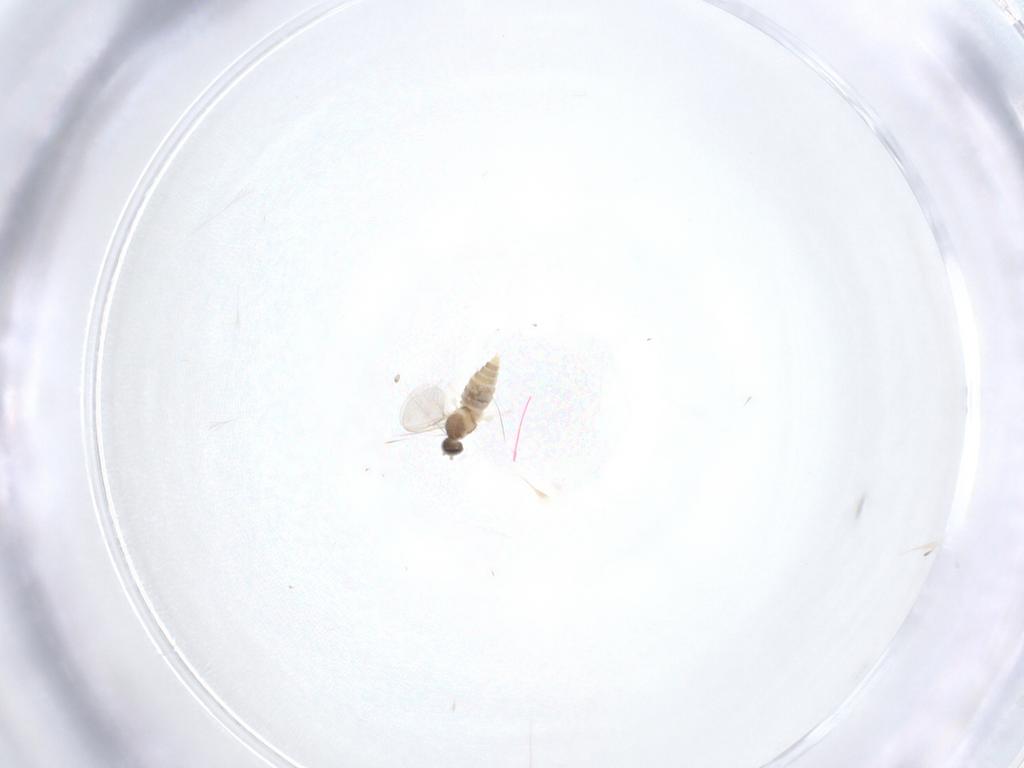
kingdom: Animalia
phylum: Arthropoda
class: Insecta
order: Diptera
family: Cecidomyiidae
